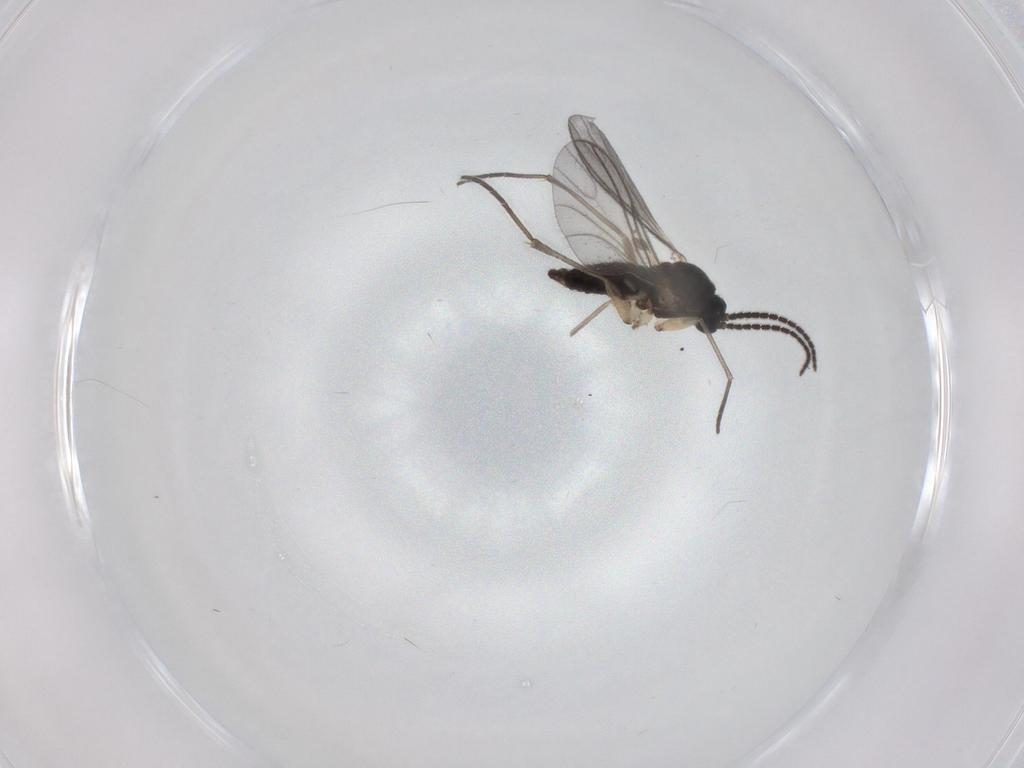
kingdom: Animalia
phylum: Arthropoda
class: Insecta
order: Diptera
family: Sciaridae
